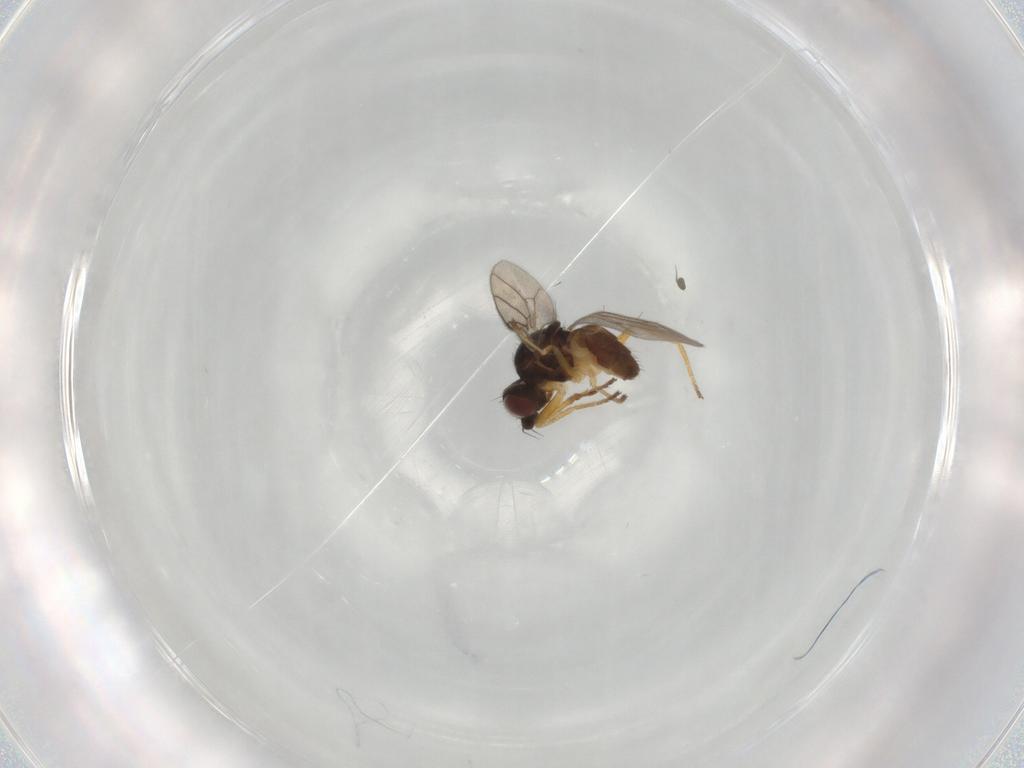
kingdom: Animalia
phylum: Arthropoda
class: Insecta
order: Diptera
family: Chloropidae
